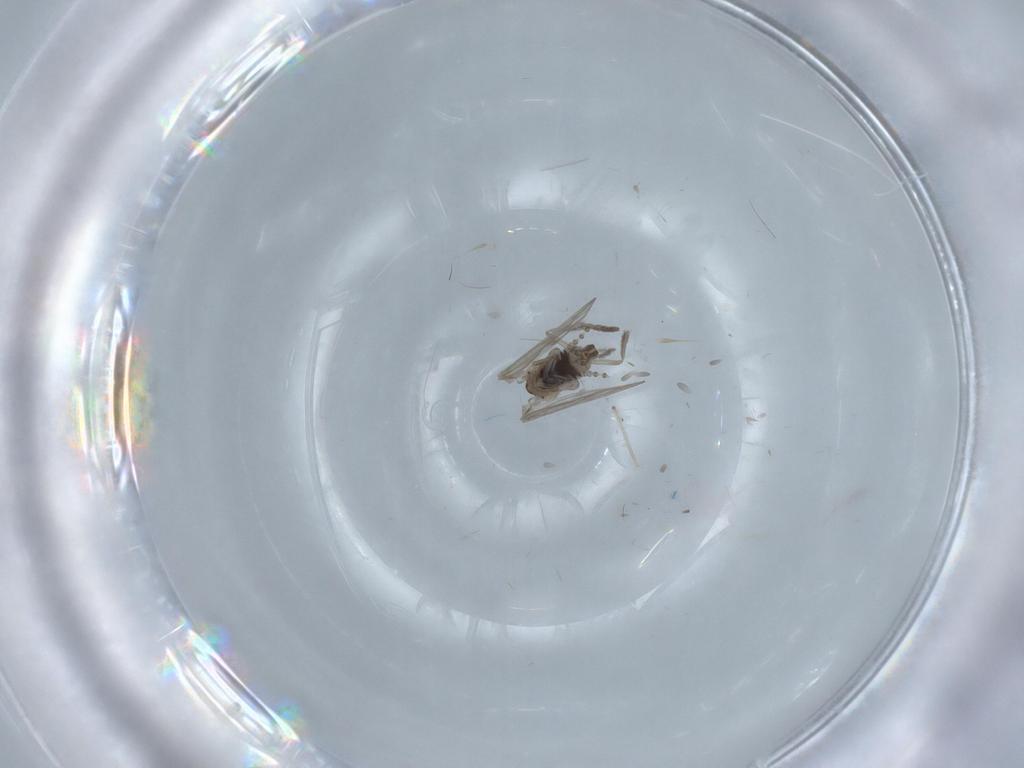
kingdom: Animalia
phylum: Arthropoda
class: Insecta
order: Diptera
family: Psychodidae
